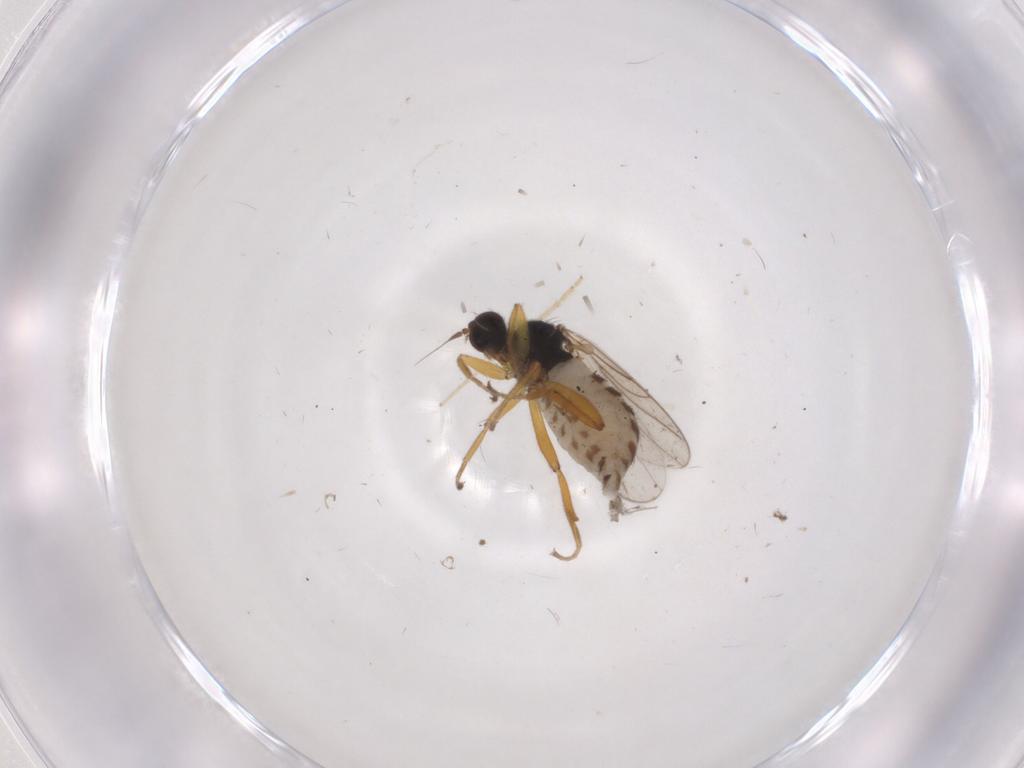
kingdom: Animalia
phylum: Arthropoda
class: Insecta
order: Diptera
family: Hybotidae
